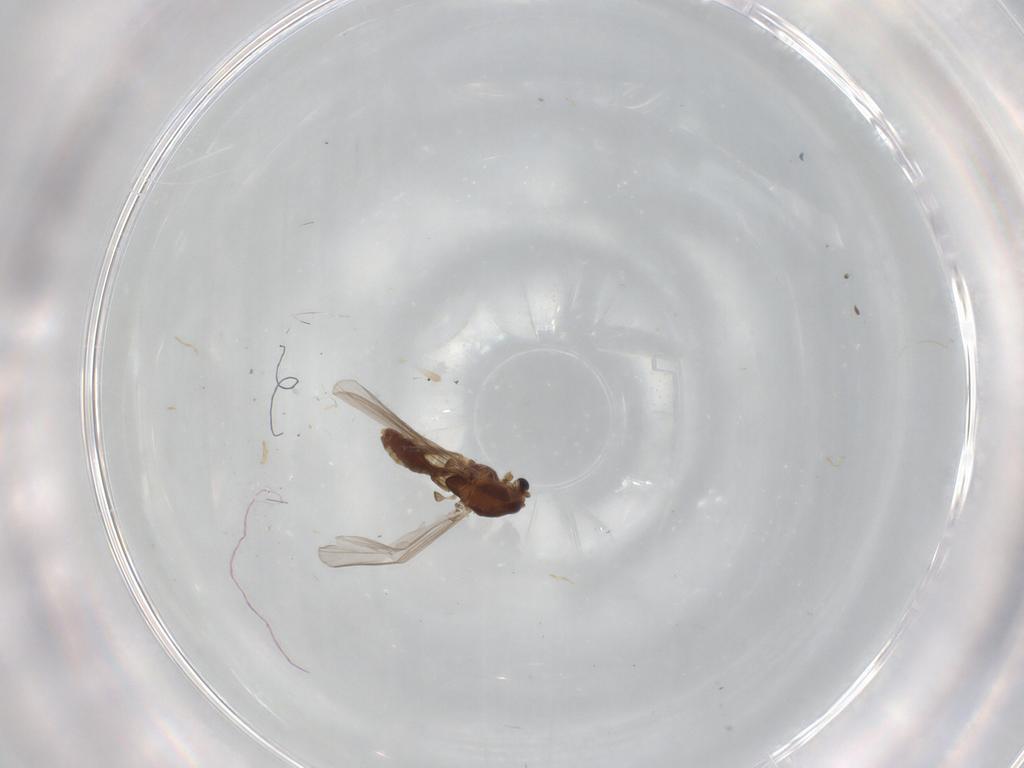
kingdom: Animalia
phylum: Arthropoda
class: Insecta
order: Diptera
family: Chironomidae
